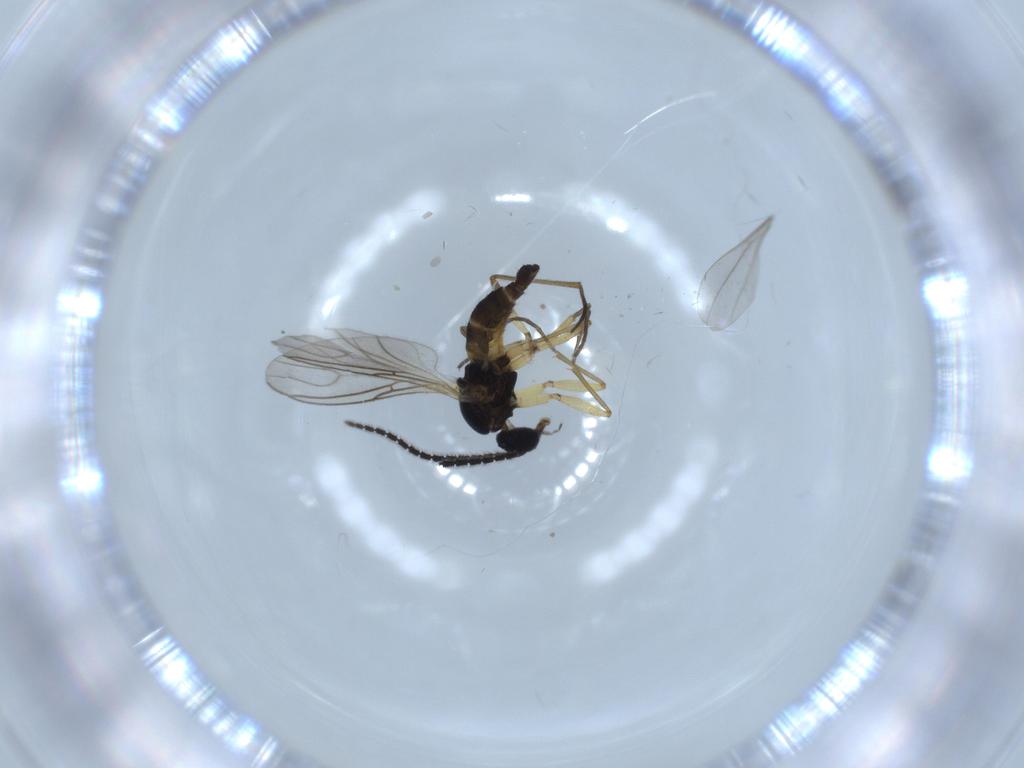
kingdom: Animalia
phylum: Arthropoda
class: Insecta
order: Diptera
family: Sciaridae
